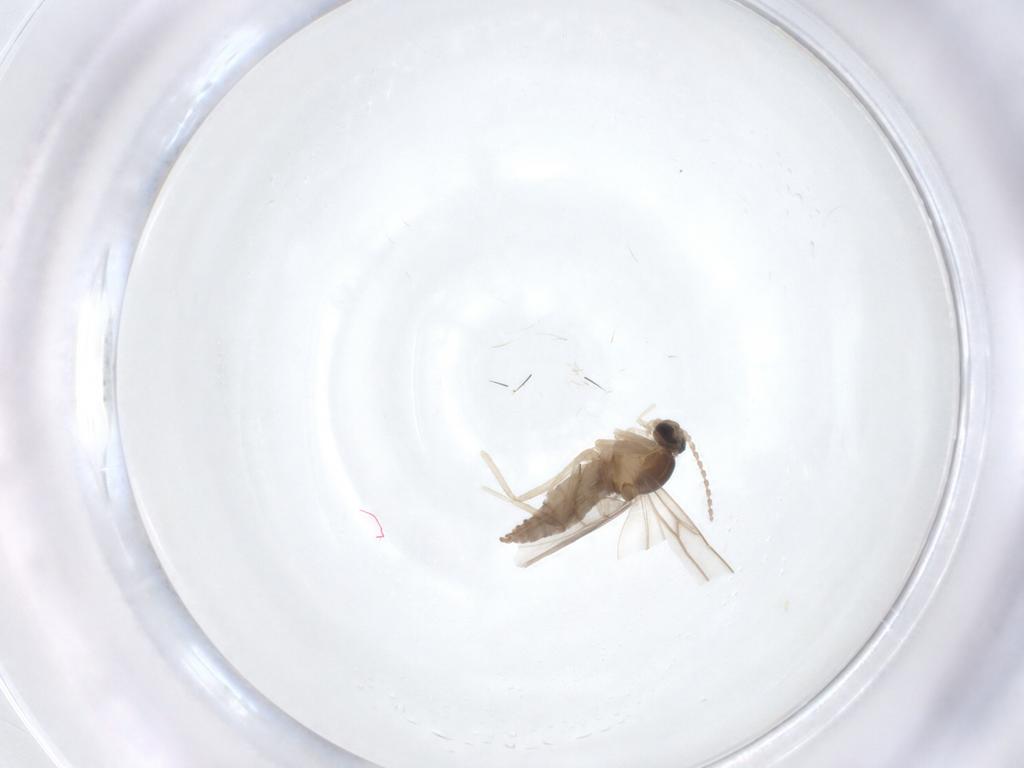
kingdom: Animalia
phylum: Arthropoda
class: Insecta
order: Diptera
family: Cecidomyiidae
